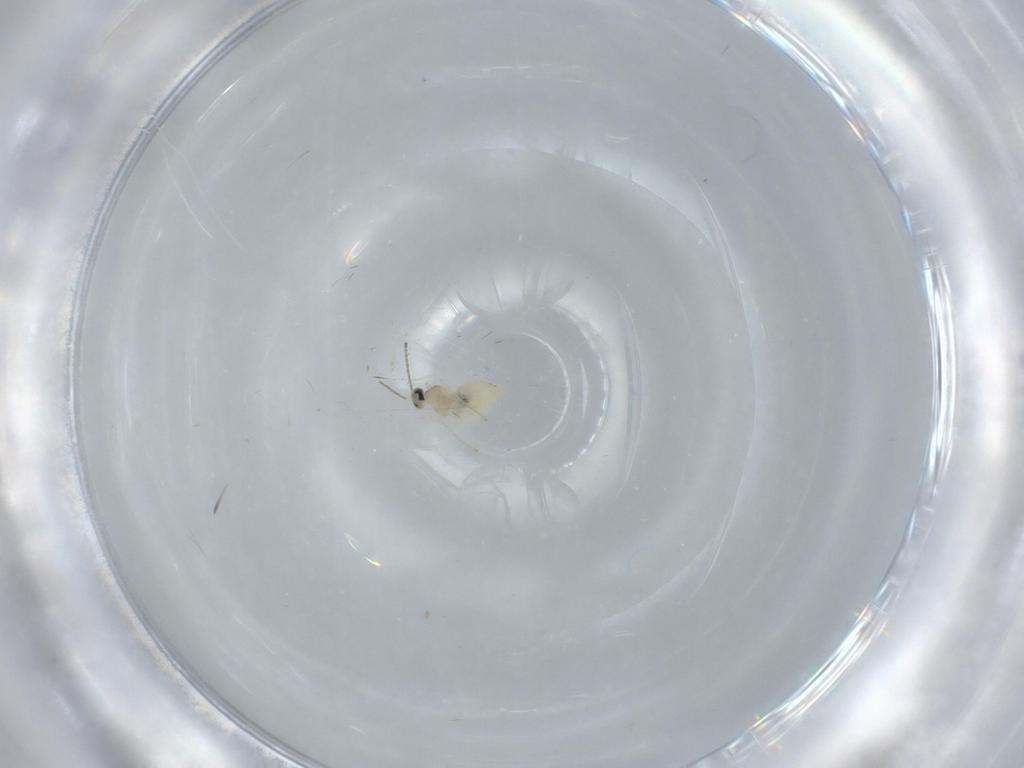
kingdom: Animalia
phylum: Arthropoda
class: Insecta
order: Diptera
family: Cecidomyiidae
